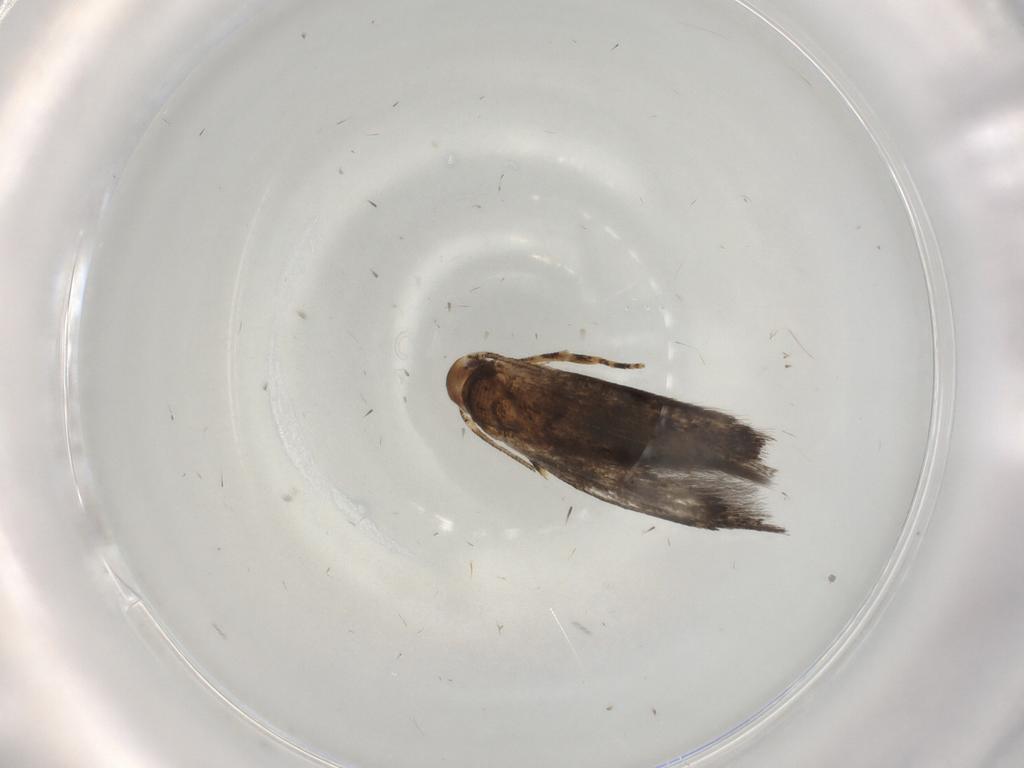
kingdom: Animalia
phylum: Arthropoda
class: Insecta
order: Lepidoptera
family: Momphidae
